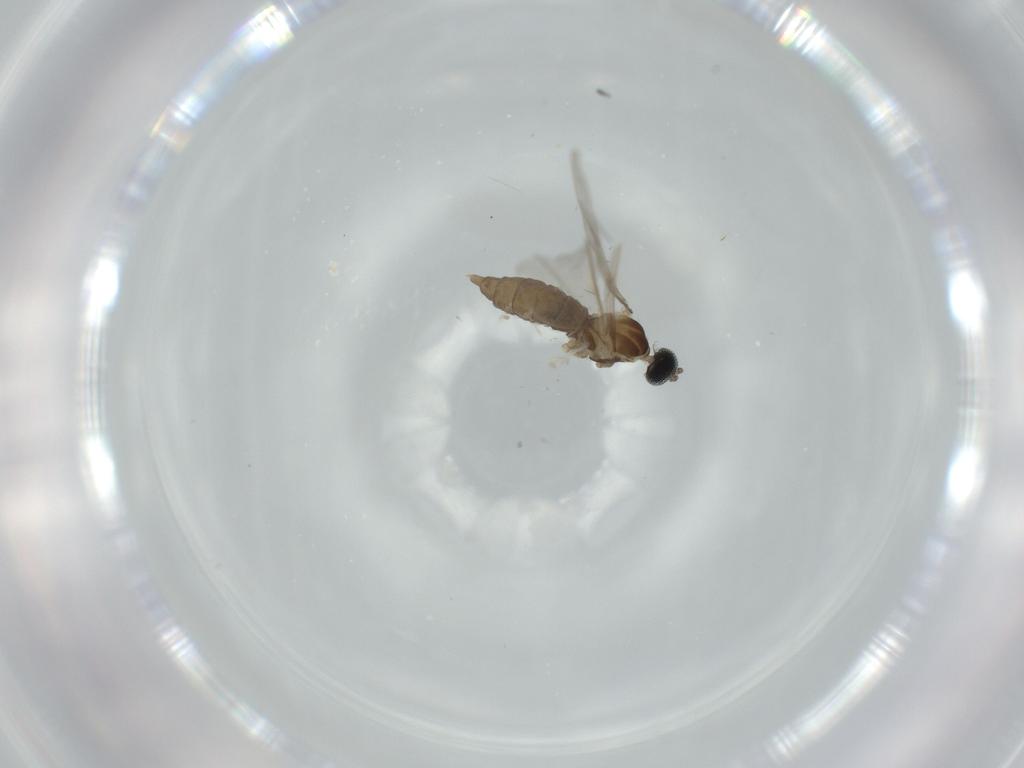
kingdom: Animalia
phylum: Arthropoda
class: Insecta
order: Diptera
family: Cecidomyiidae
